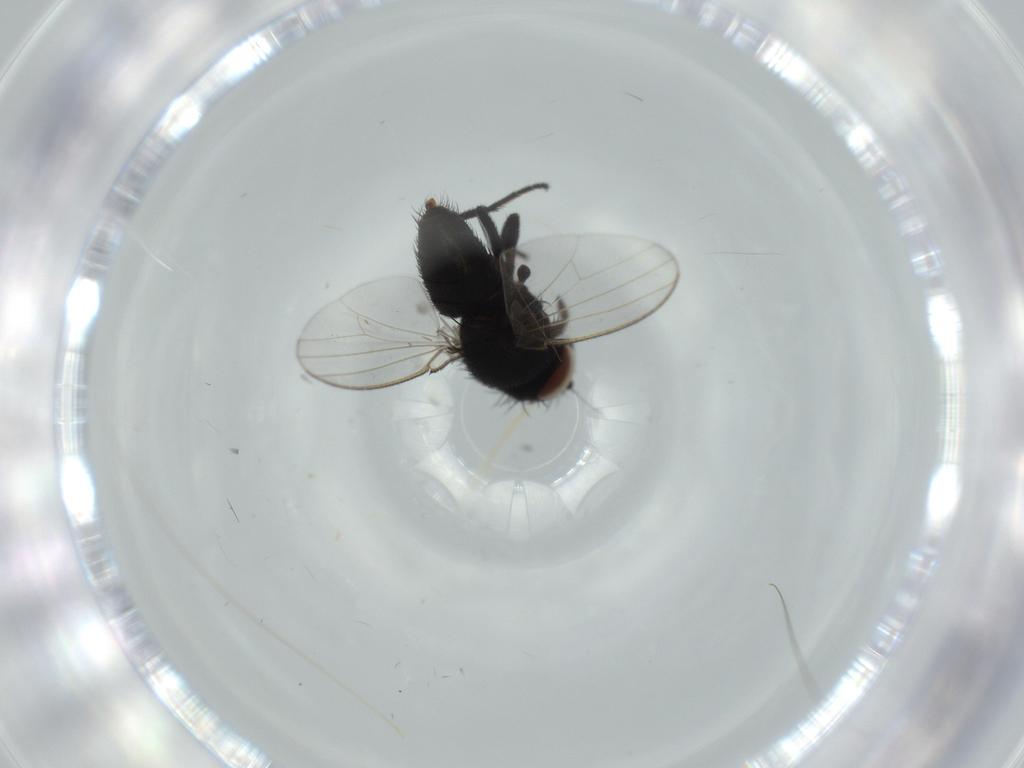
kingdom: Animalia
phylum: Arthropoda
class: Insecta
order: Diptera
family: Dolichopodidae
